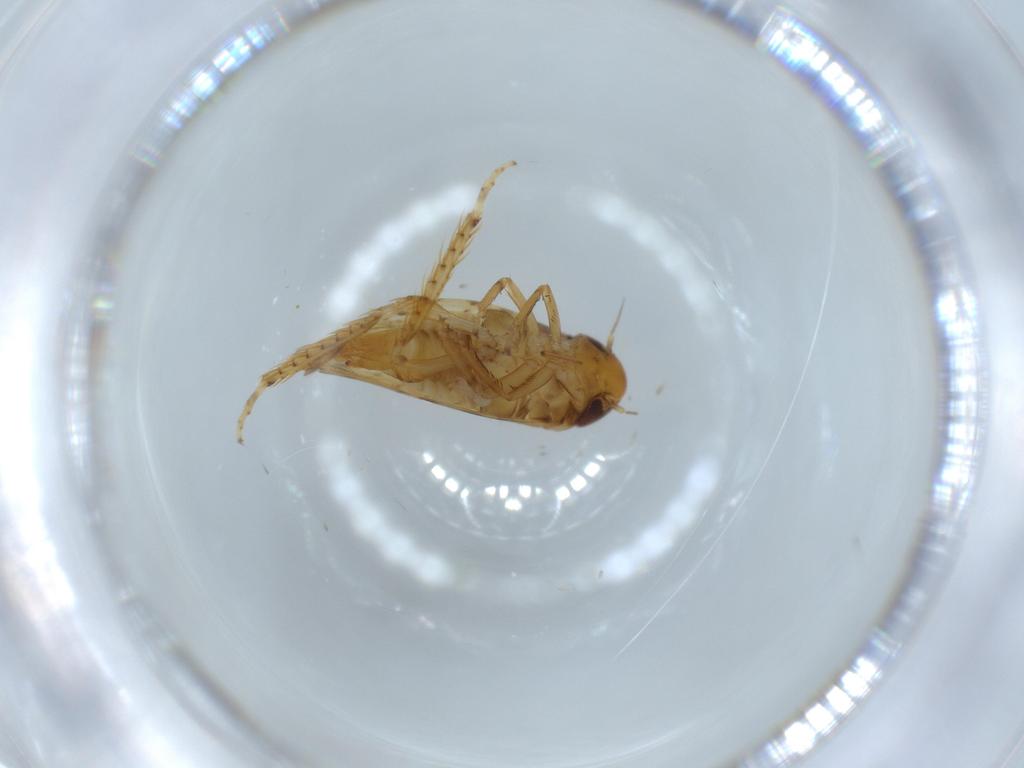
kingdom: Animalia
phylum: Arthropoda
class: Insecta
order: Hemiptera
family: Cicadellidae
